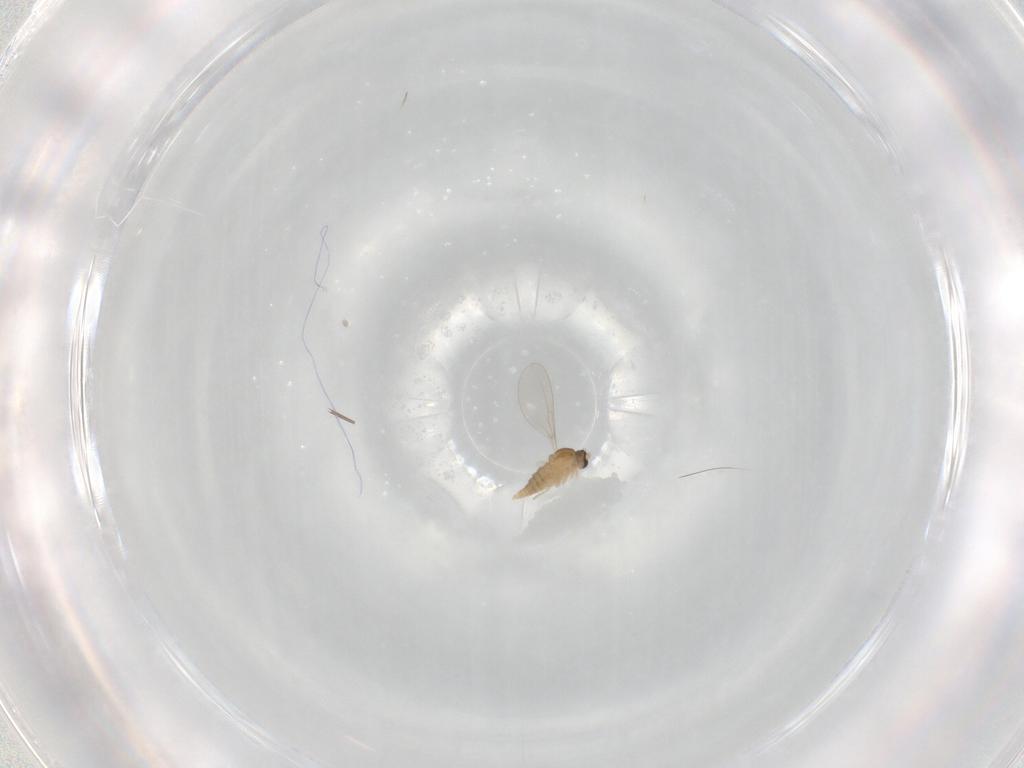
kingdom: Animalia
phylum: Arthropoda
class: Insecta
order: Diptera
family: Cecidomyiidae
